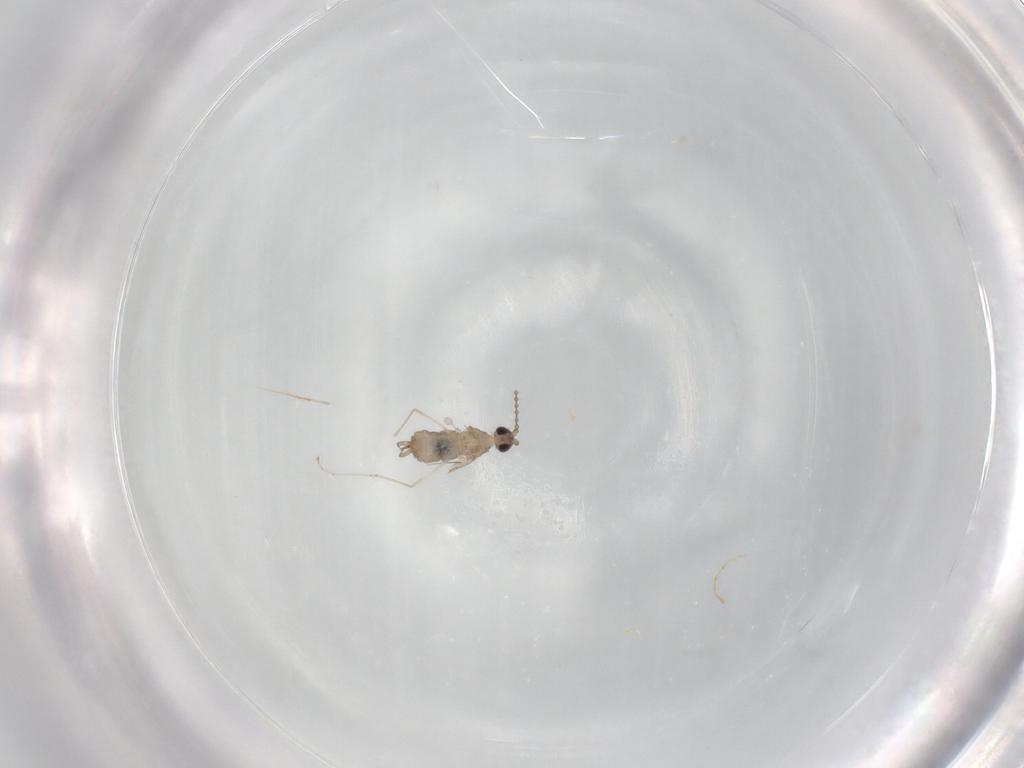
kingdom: Animalia
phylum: Arthropoda
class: Insecta
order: Diptera
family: Cecidomyiidae
